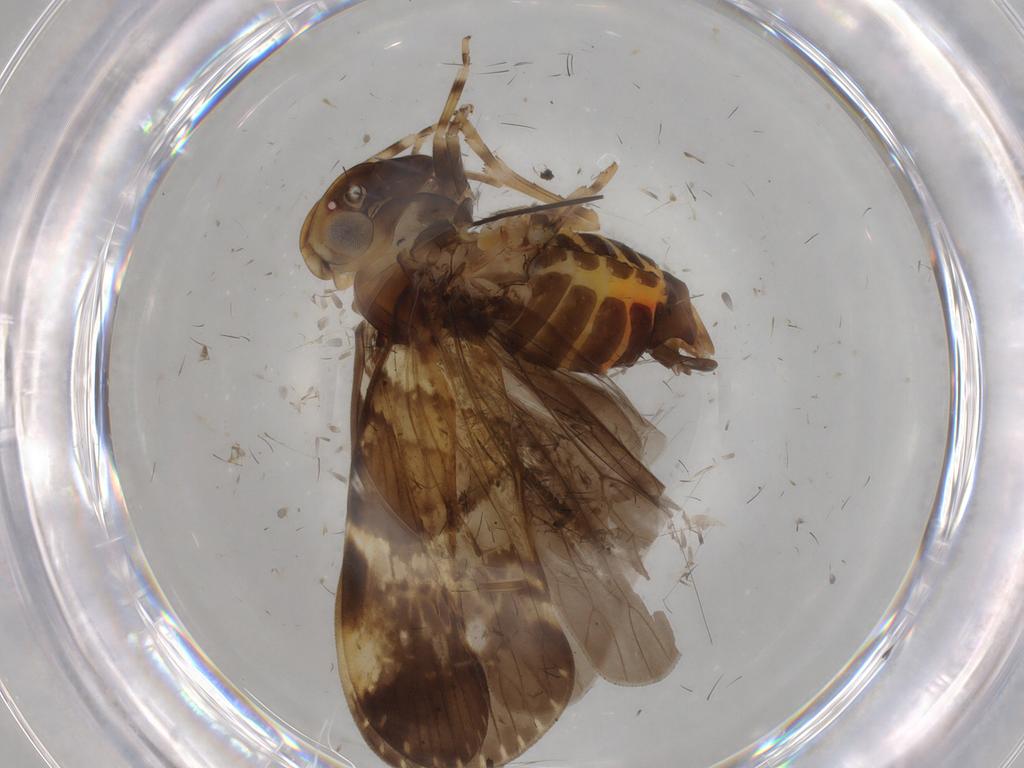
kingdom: Animalia
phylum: Arthropoda
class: Insecta
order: Hemiptera
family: Cixiidae
